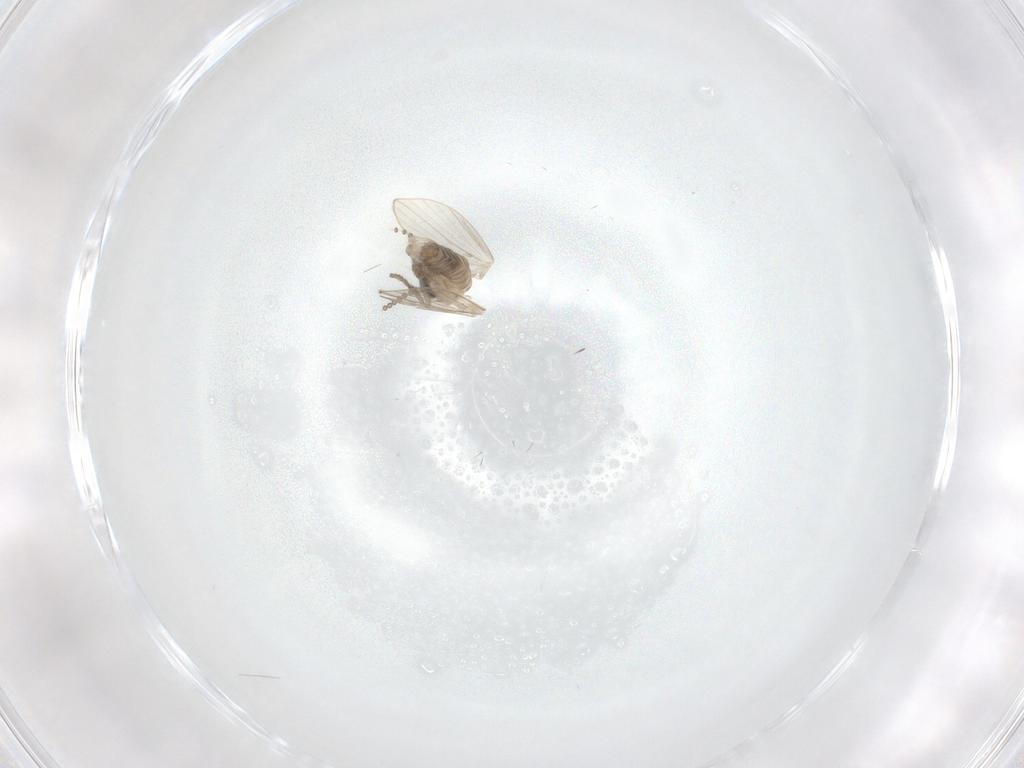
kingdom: Animalia
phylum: Arthropoda
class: Insecta
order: Diptera
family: Psychodidae
